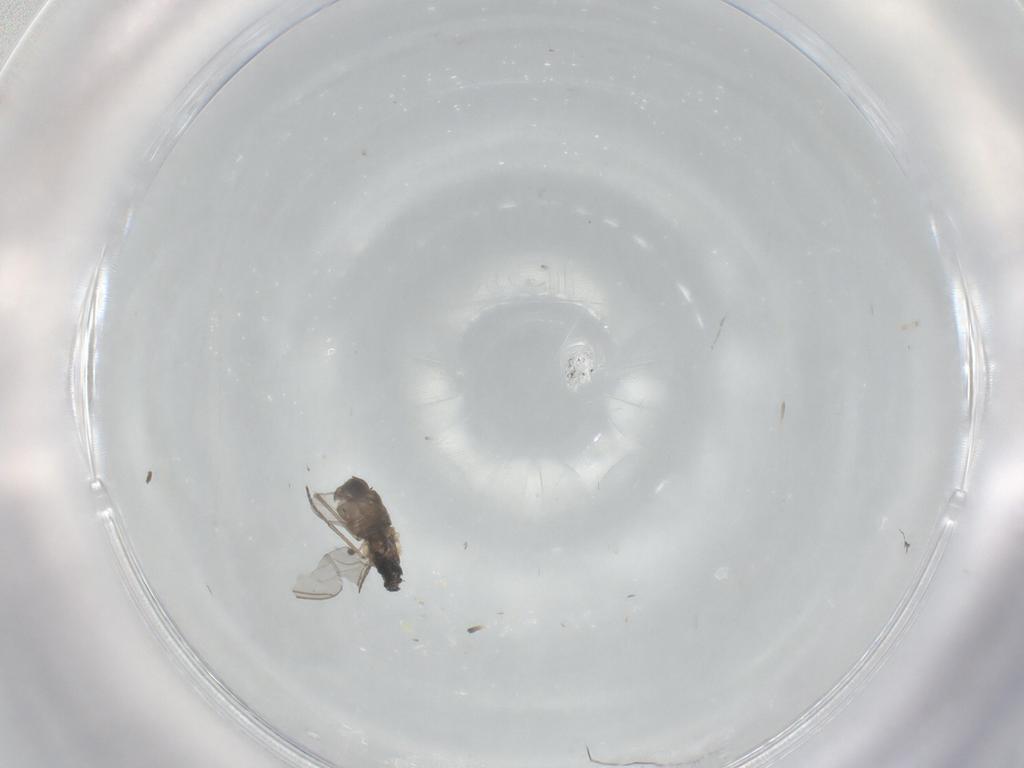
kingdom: Animalia
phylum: Arthropoda
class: Insecta
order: Diptera
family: Sciaridae
